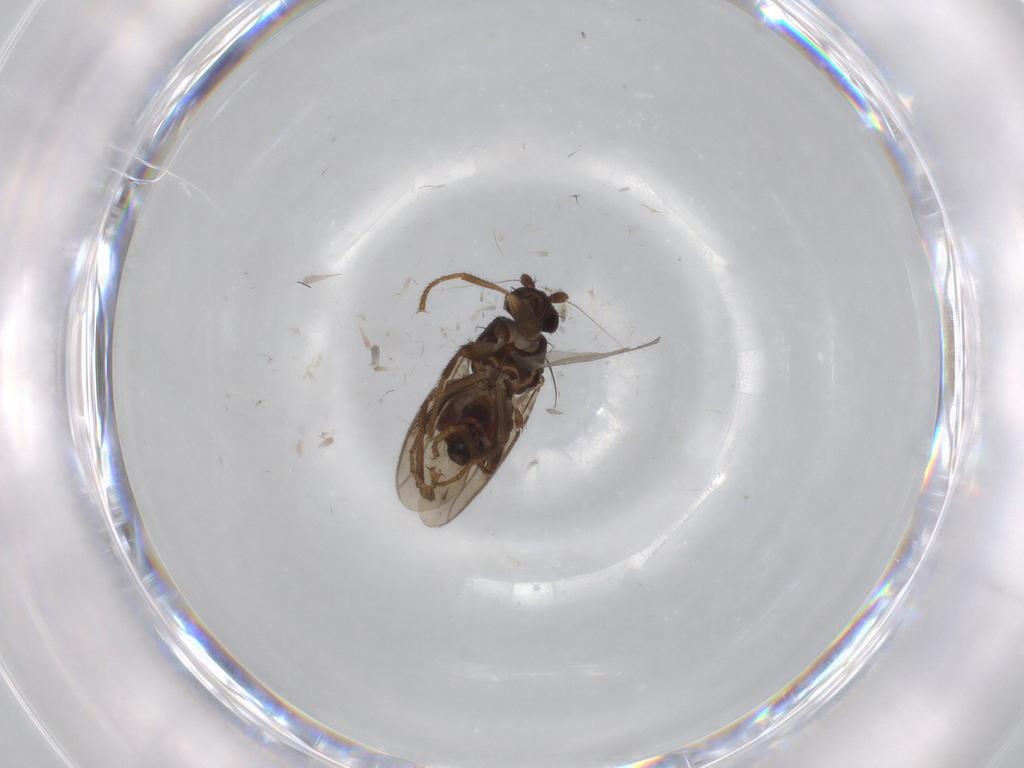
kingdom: Animalia
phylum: Arthropoda
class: Insecta
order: Diptera
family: Sphaeroceridae
